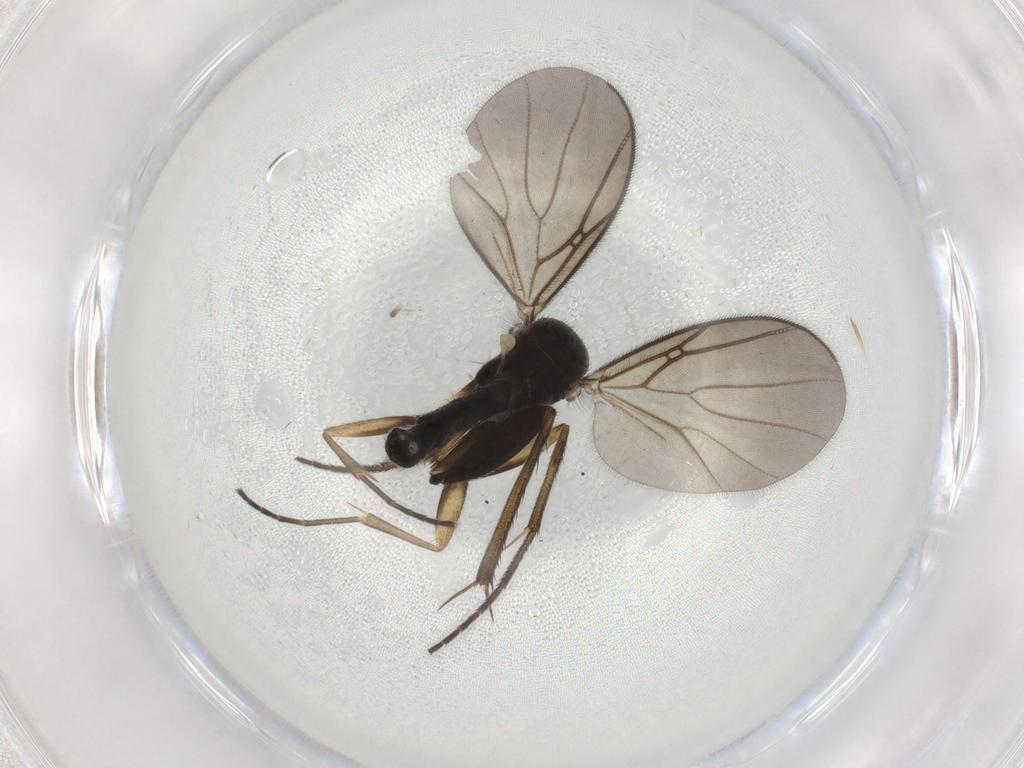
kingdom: Animalia
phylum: Arthropoda
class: Insecta
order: Diptera
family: Mycetophilidae
